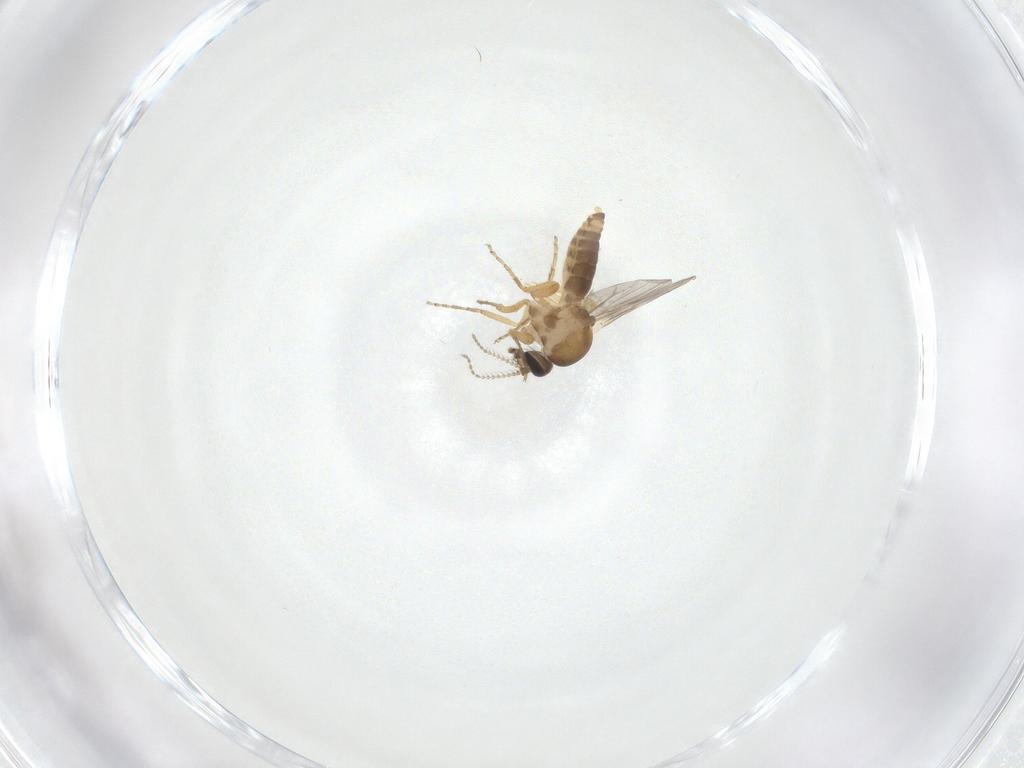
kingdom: Animalia
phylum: Arthropoda
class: Insecta
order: Diptera
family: Ceratopogonidae
